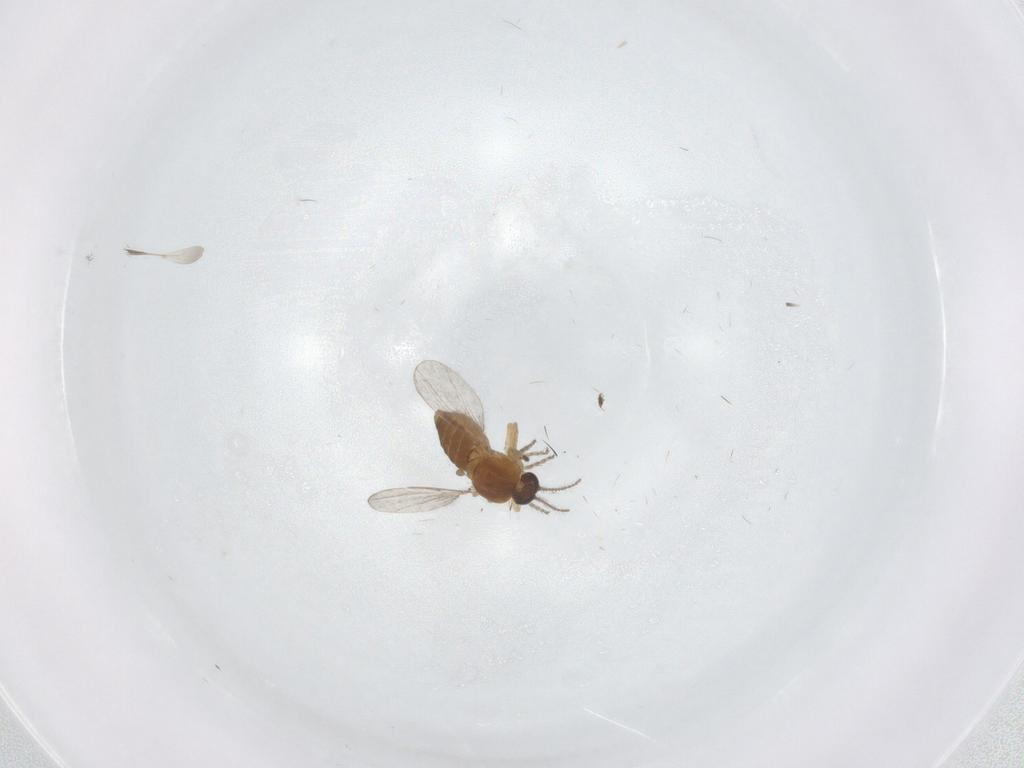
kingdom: Animalia
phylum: Arthropoda
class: Insecta
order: Diptera
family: Ceratopogonidae
